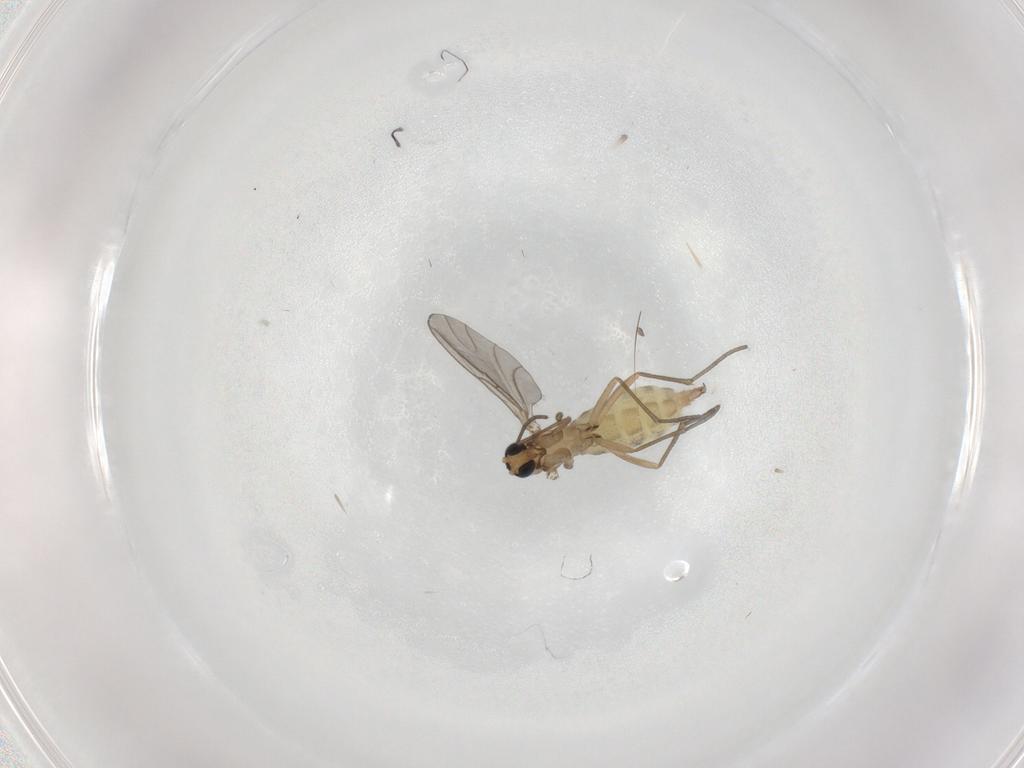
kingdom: Animalia
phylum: Arthropoda
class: Insecta
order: Diptera
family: Sciaridae
